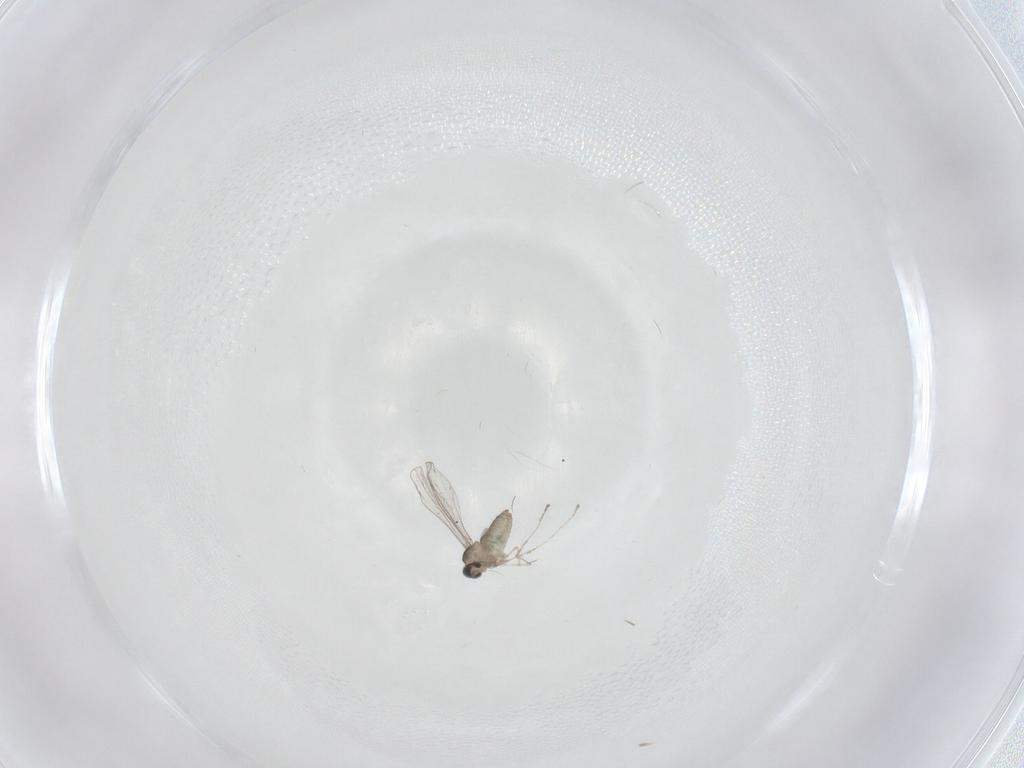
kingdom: Animalia
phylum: Arthropoda
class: Insecta
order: Diptera
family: Cecidomyiidae
